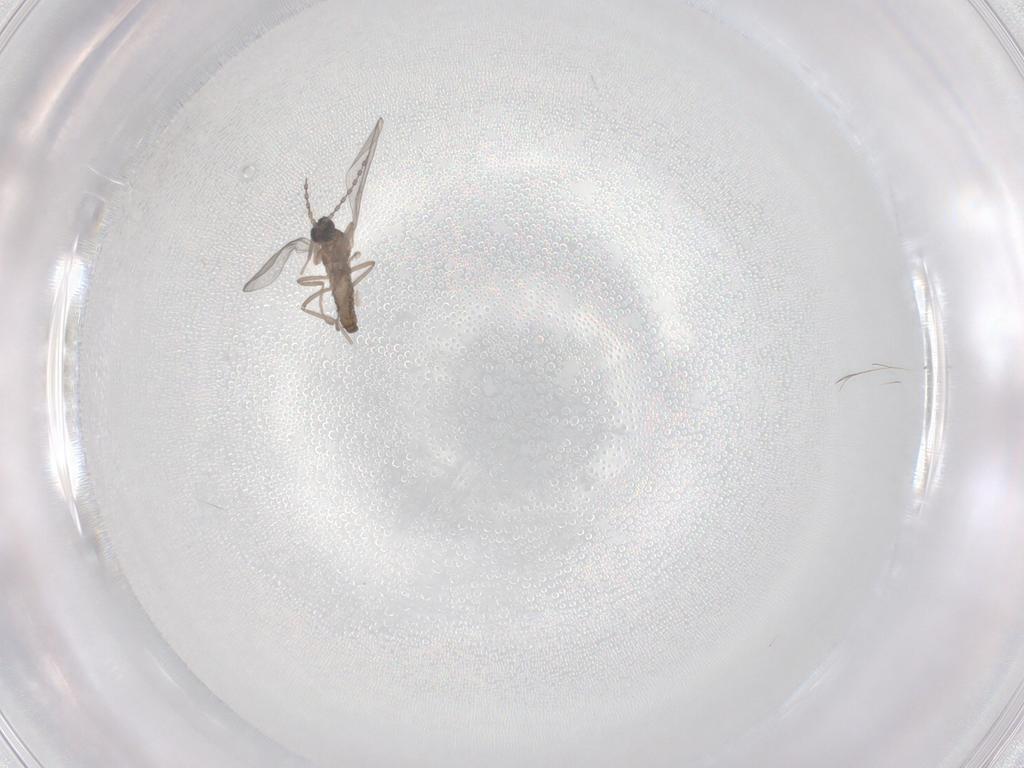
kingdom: Animalia
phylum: Arthropoda
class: Insecta
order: Diptera
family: Cecidomyiidae
